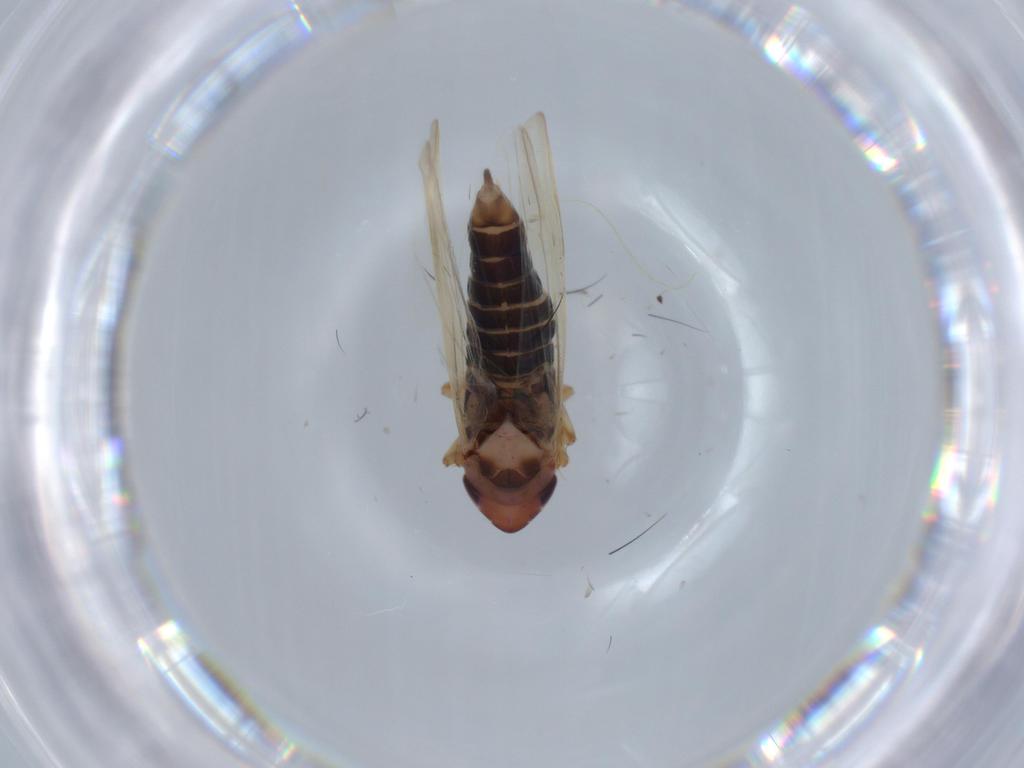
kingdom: Animalia
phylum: Arthropoda
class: Insecta
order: Hemiptera
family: Cicadellidae
